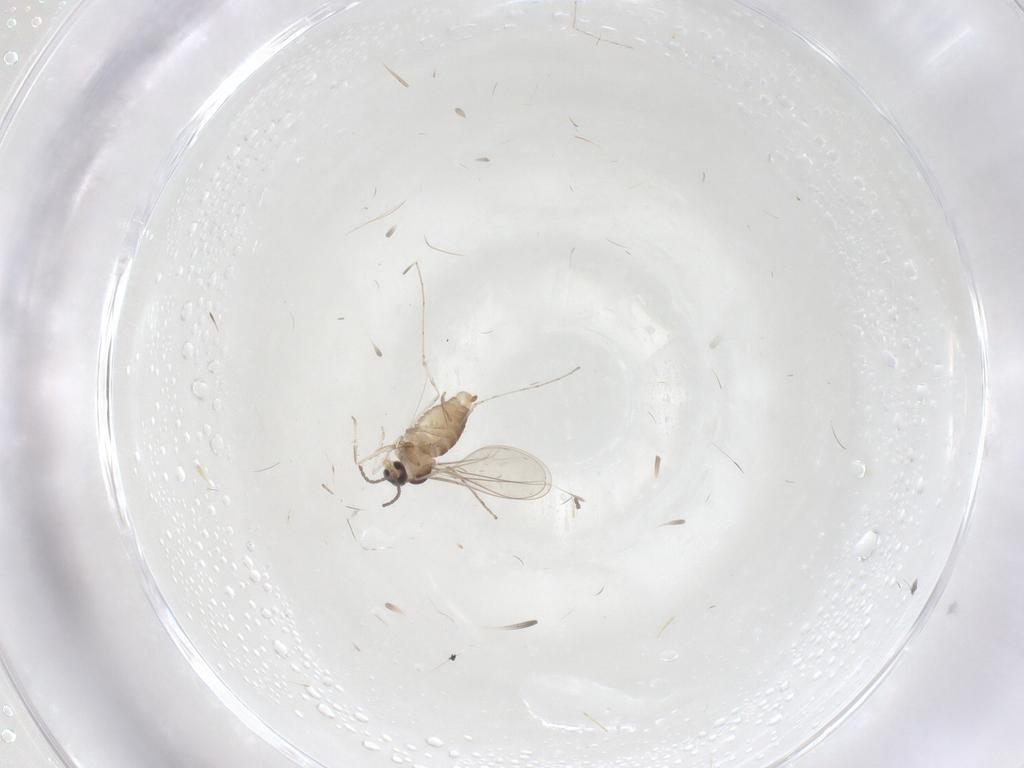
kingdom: Animalia
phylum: Arthropoda
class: Insecta
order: Diptera
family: Cecidomyiidae
